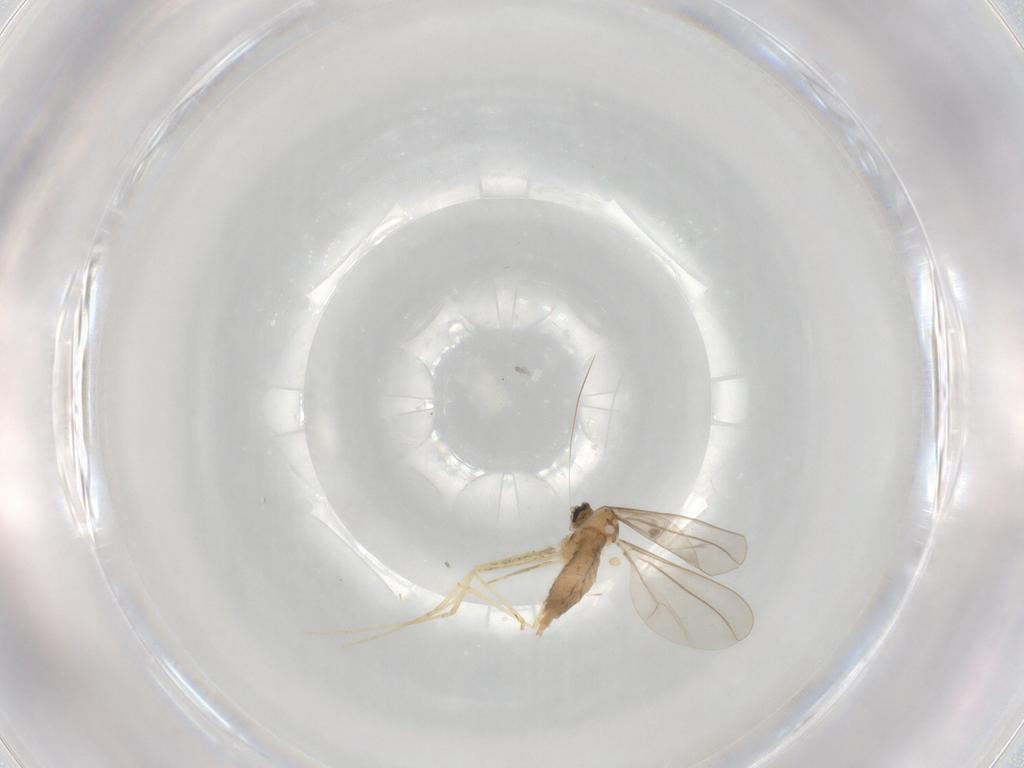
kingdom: Animalia
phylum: Arthropoda
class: Insecta
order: Diptera
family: Cecidomyiidae
